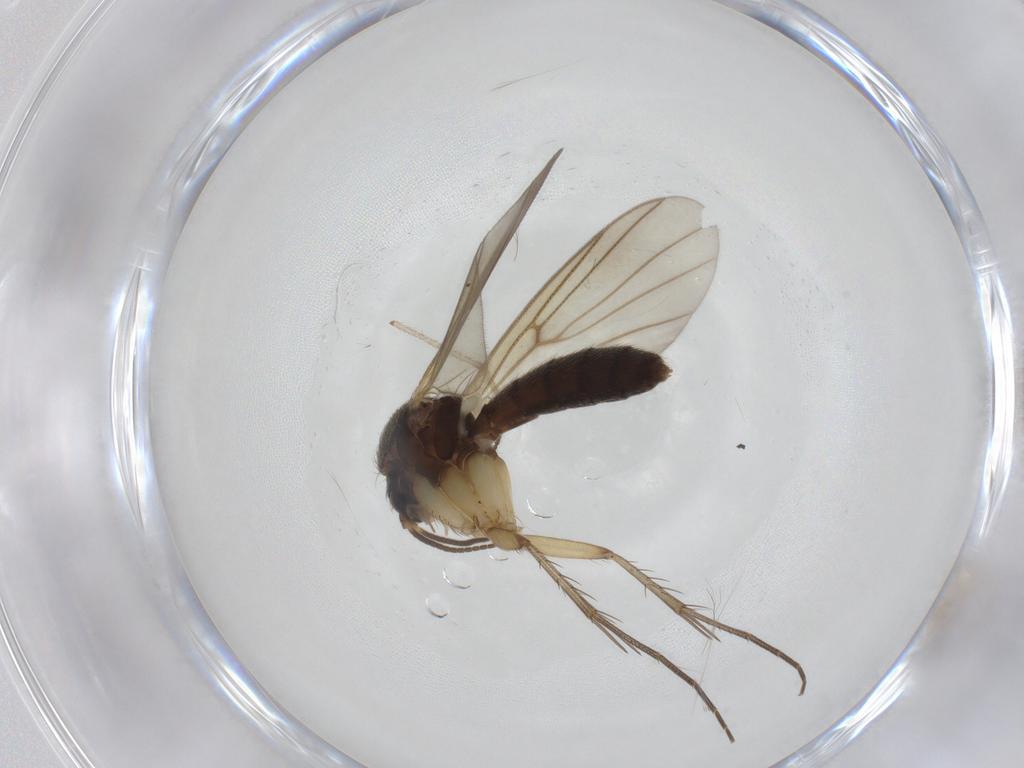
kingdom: Animalia
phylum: Arthropoda
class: Insecta
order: Diptera
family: Mycetophilidae
